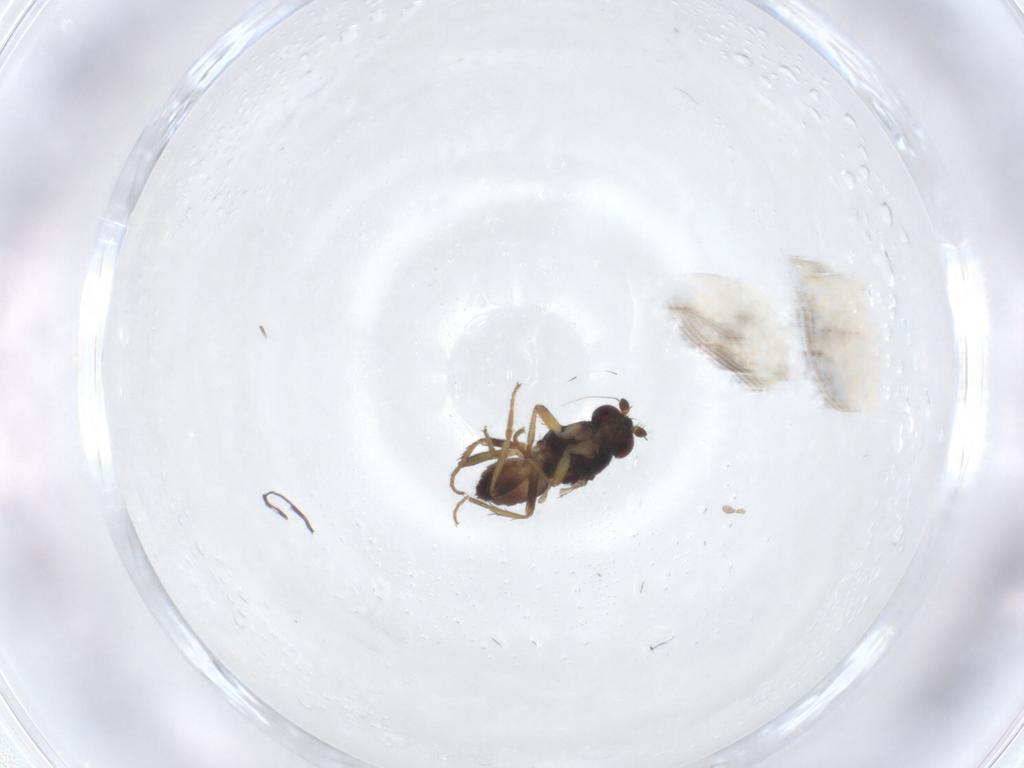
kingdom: Animalia
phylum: Arthropoda
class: Insecta
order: Diptera
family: Sphaeroceridae
